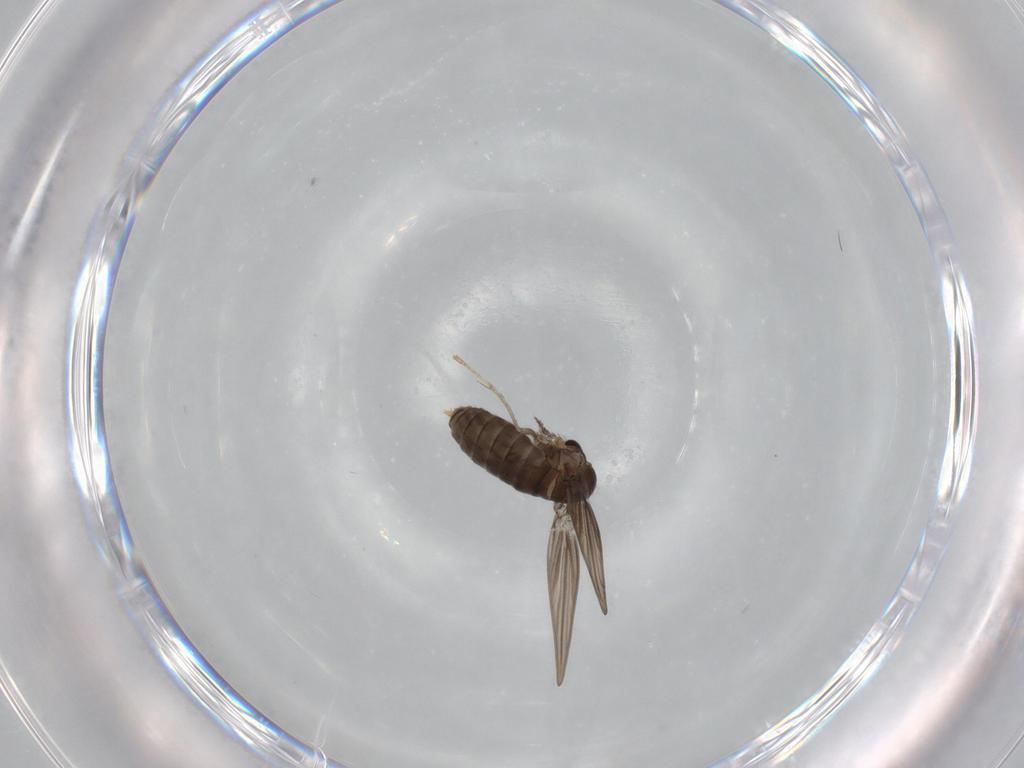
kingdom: Animalia
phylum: Arthropoda
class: Insecta
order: Diptera
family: Psychodidae
